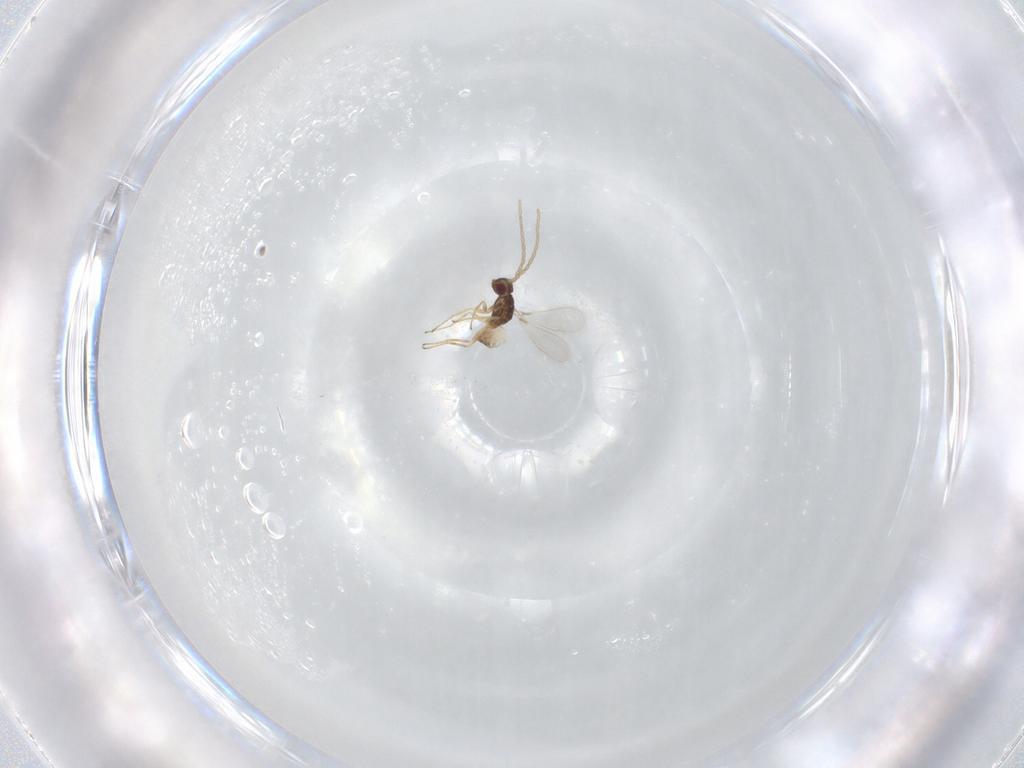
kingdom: Animalia
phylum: Arthropoda
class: Insecta
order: Hymenoptera
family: Mymaridae
